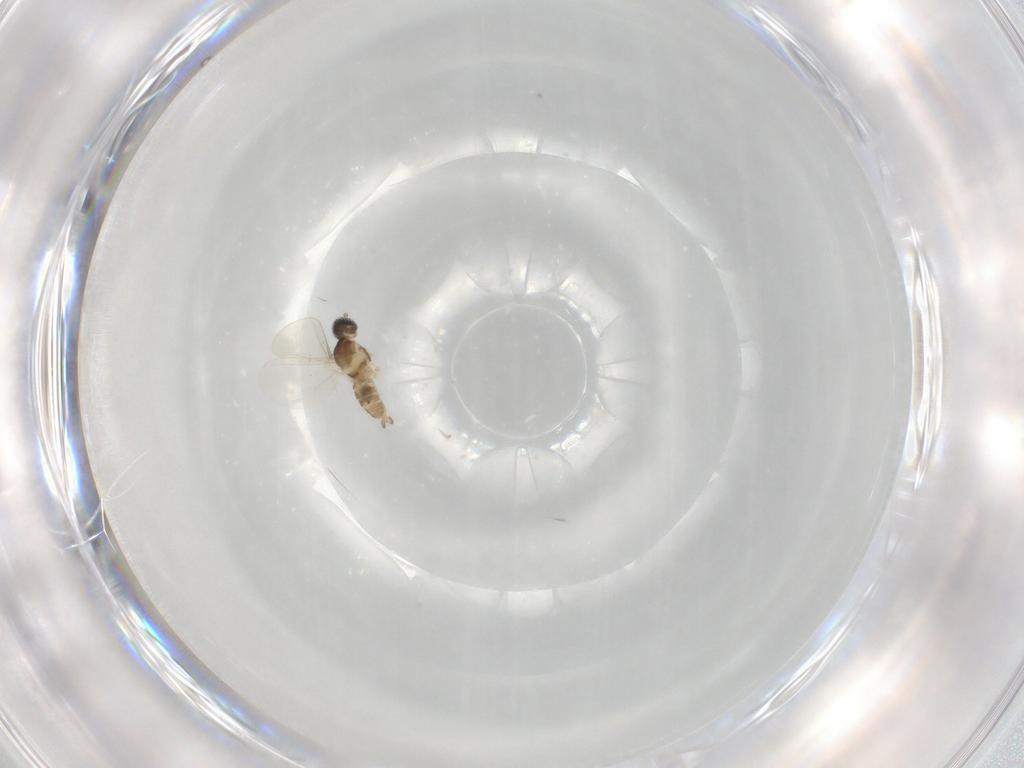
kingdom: Animalia
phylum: Arthropoda
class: Insecta
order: Diptera
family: Cecidomyiidae
